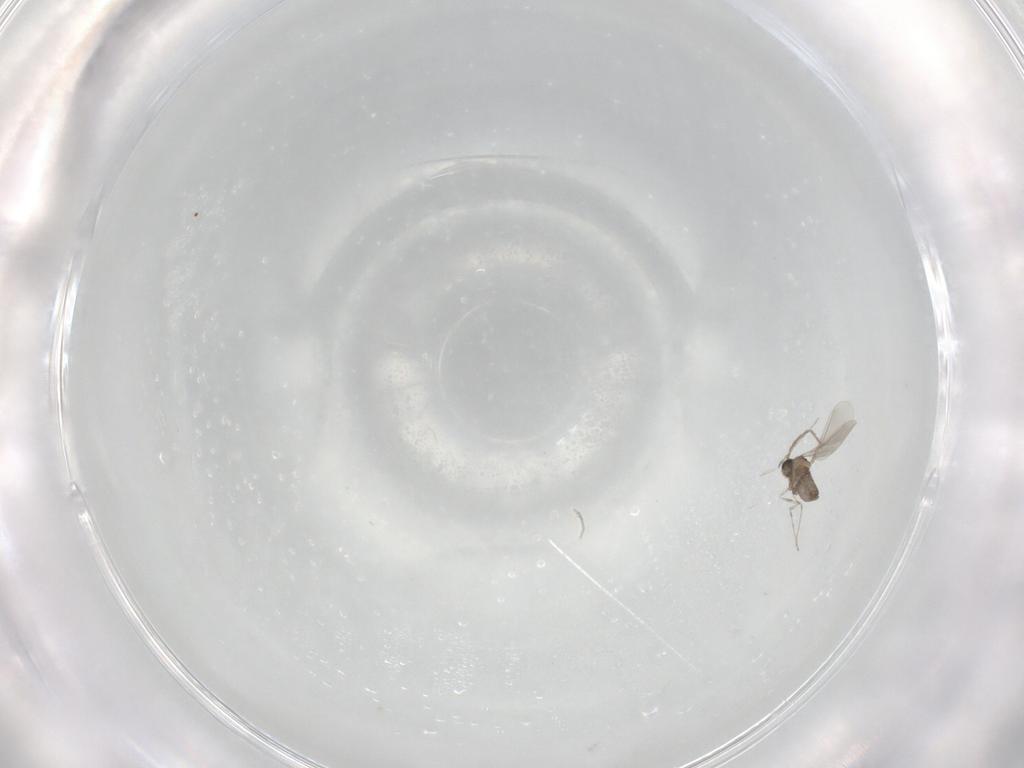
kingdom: Animalia
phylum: Arthropoda
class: Insecta
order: Diptera
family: Cecidomyiidae
